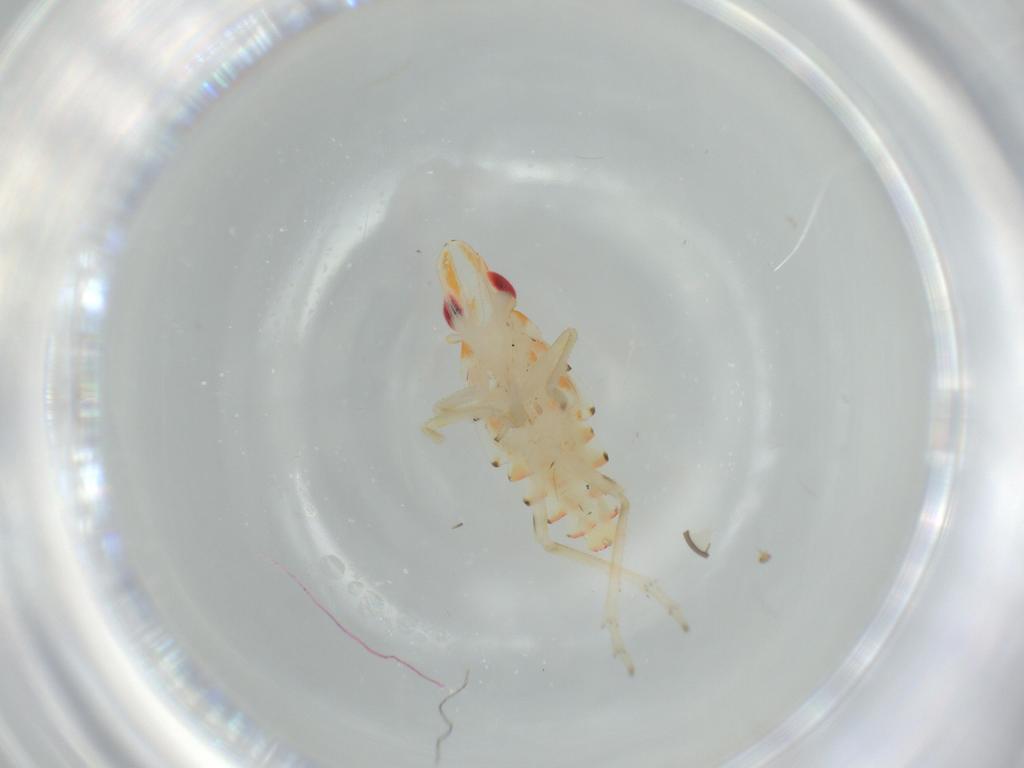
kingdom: Animalia
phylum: Arthropoda
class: Insecta
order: Hemiptera
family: Tropiduchidae
